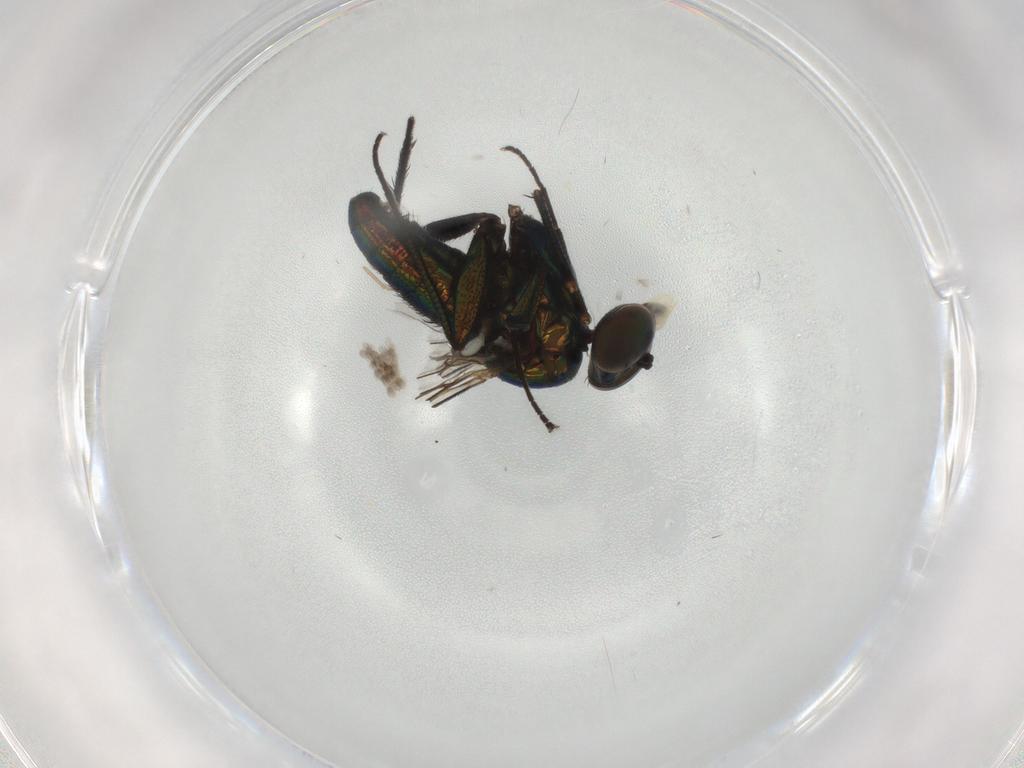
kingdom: Animalia
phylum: Arthropoda
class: Insecta
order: Diptera
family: Dolichopodidae
